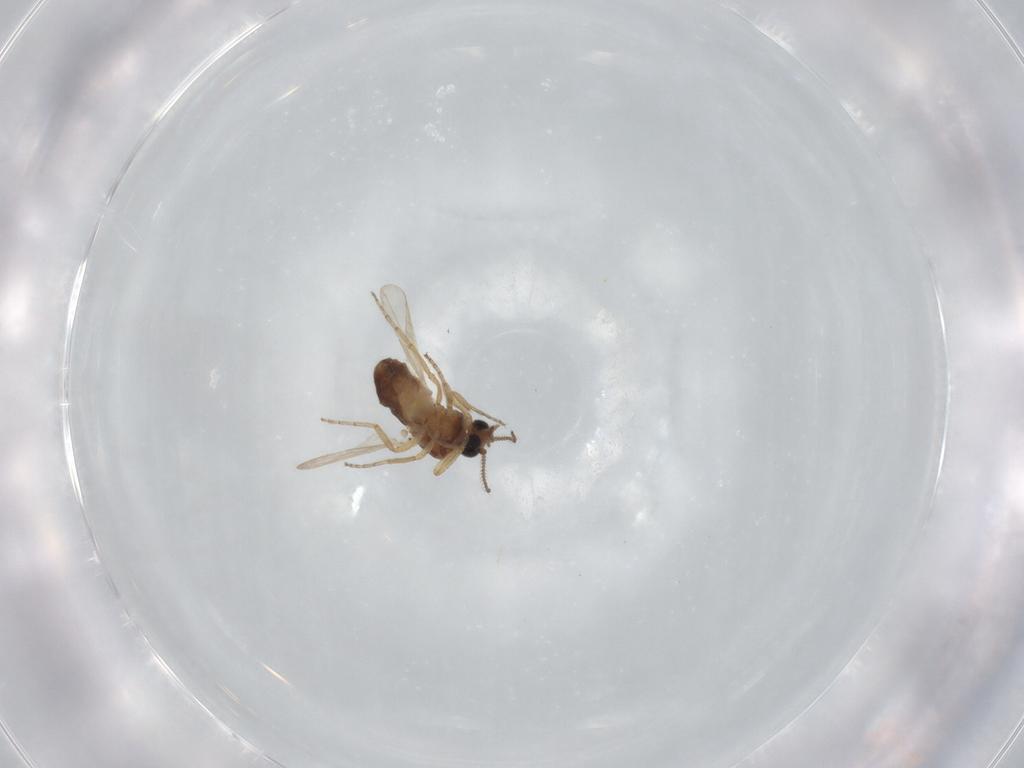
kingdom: Animalia
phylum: Arthropoda
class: Insecta
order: Diptera
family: Ceratopogonidae
